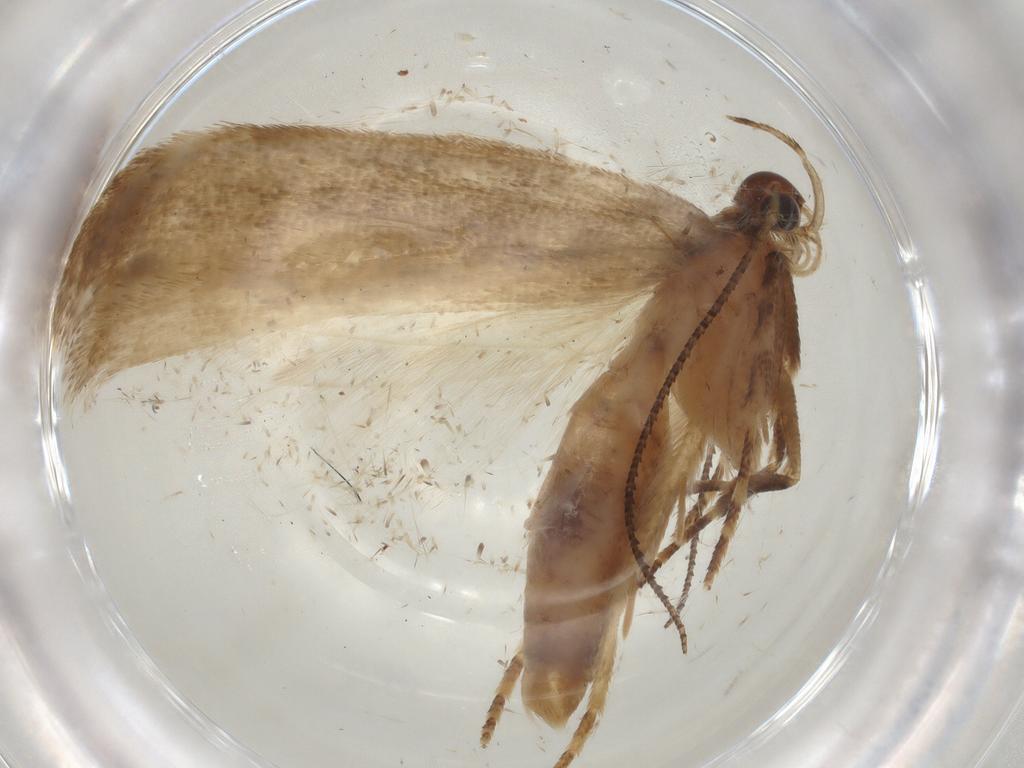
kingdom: Animalia
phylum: Arthropoda
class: Insecta
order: Lepidoptera
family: Gelechiidae
